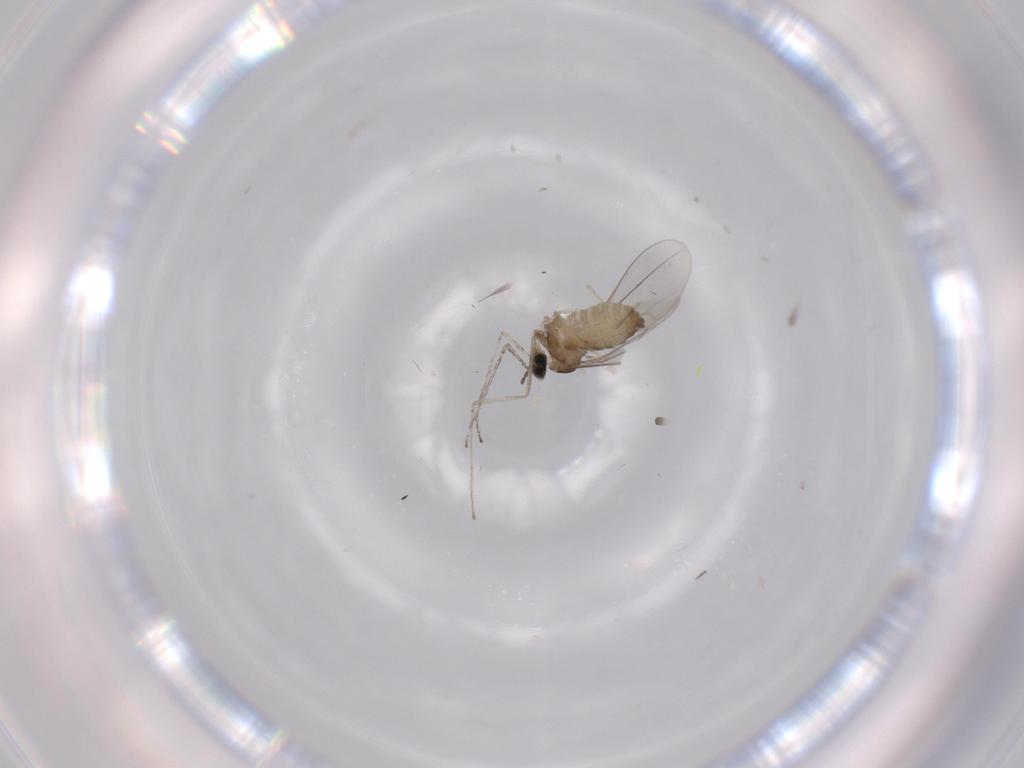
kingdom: Animalia
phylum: Arthropoda
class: Insecta
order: Diptera
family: Cecidomyiidae
